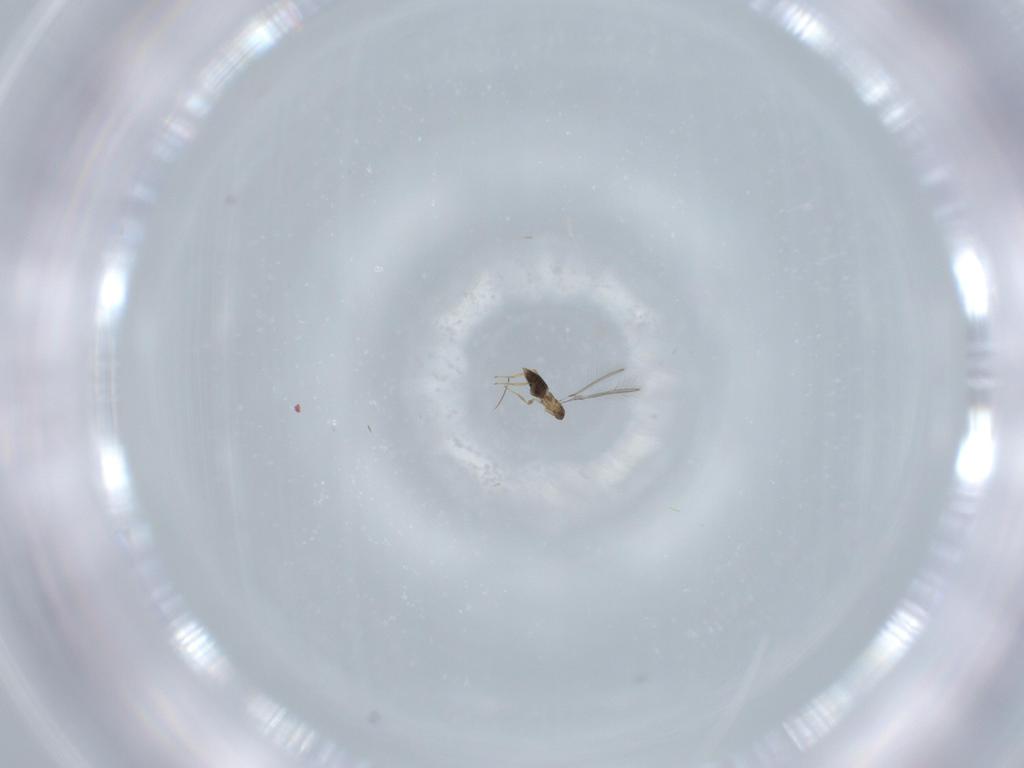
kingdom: Animalia
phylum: Arthropoda
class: Insecta
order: Hymenoptera
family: Mymaridae
